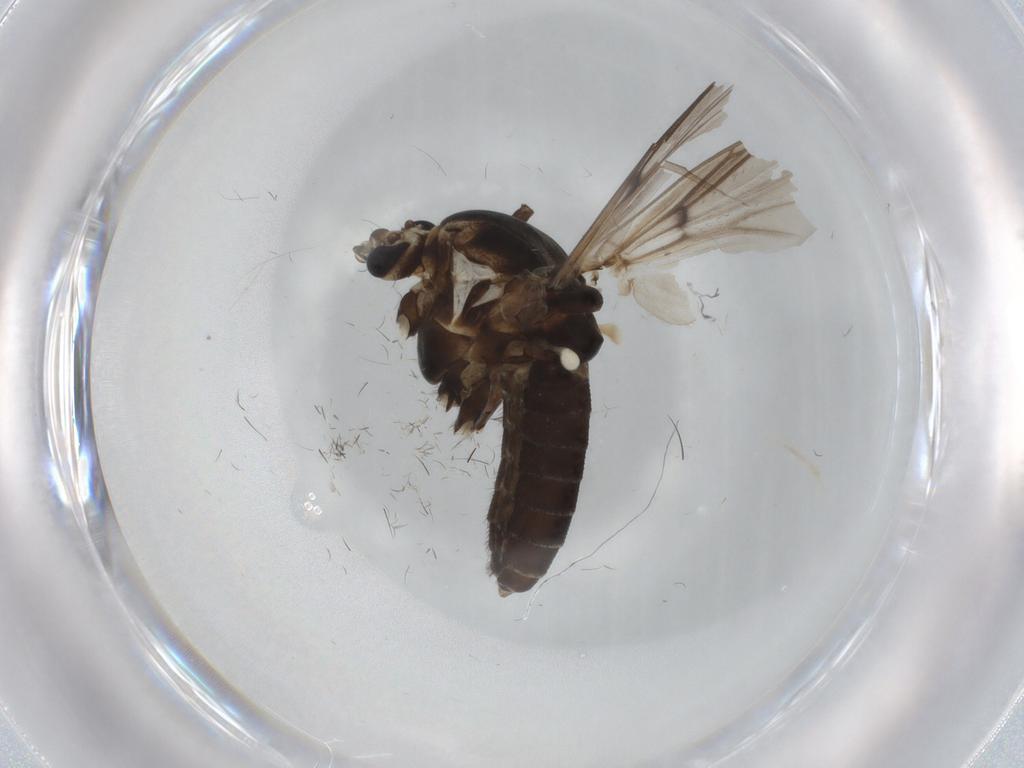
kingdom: Animalia
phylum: Arthropoda
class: Insecta
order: Diptera
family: Chironomidae
